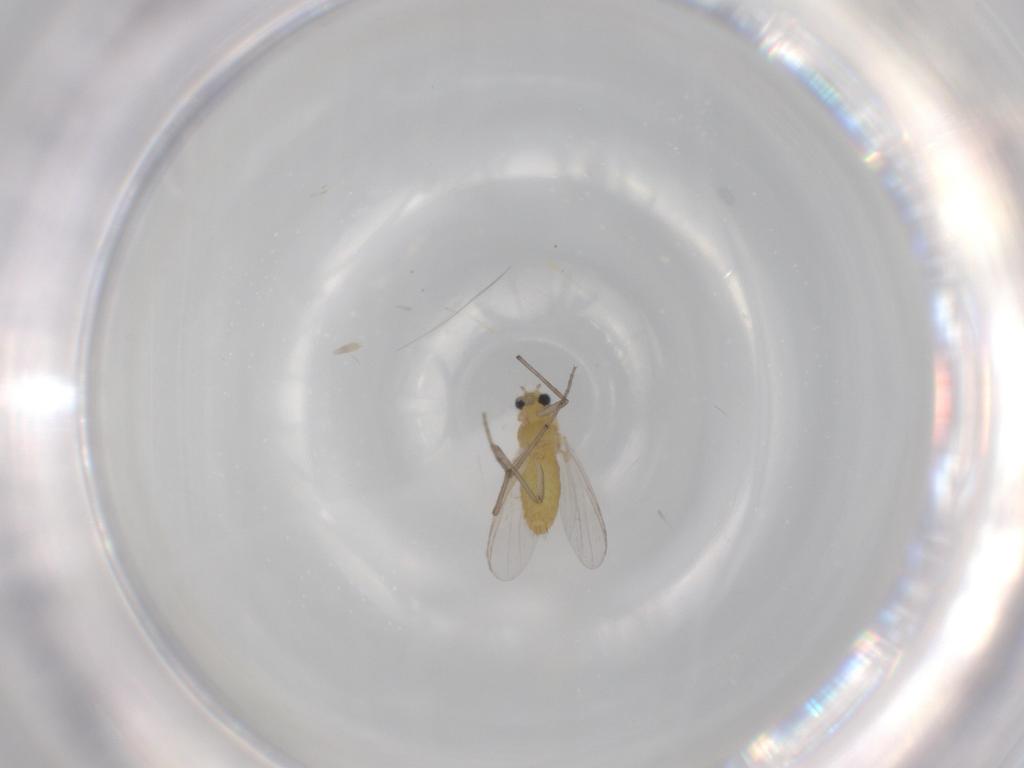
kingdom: Animalia
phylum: Arthropoda
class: Insecta
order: Diptera
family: Chironomidae
